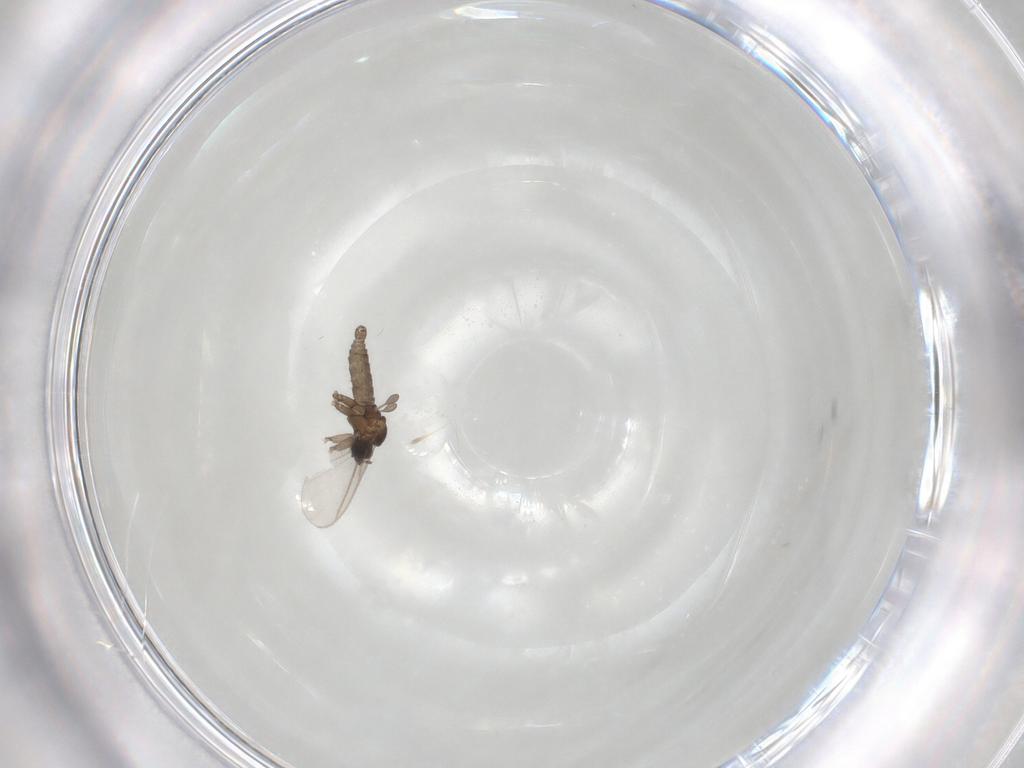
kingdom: Animalia
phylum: Arthropoda
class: Insecta
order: Diptera
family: Sciaridae
